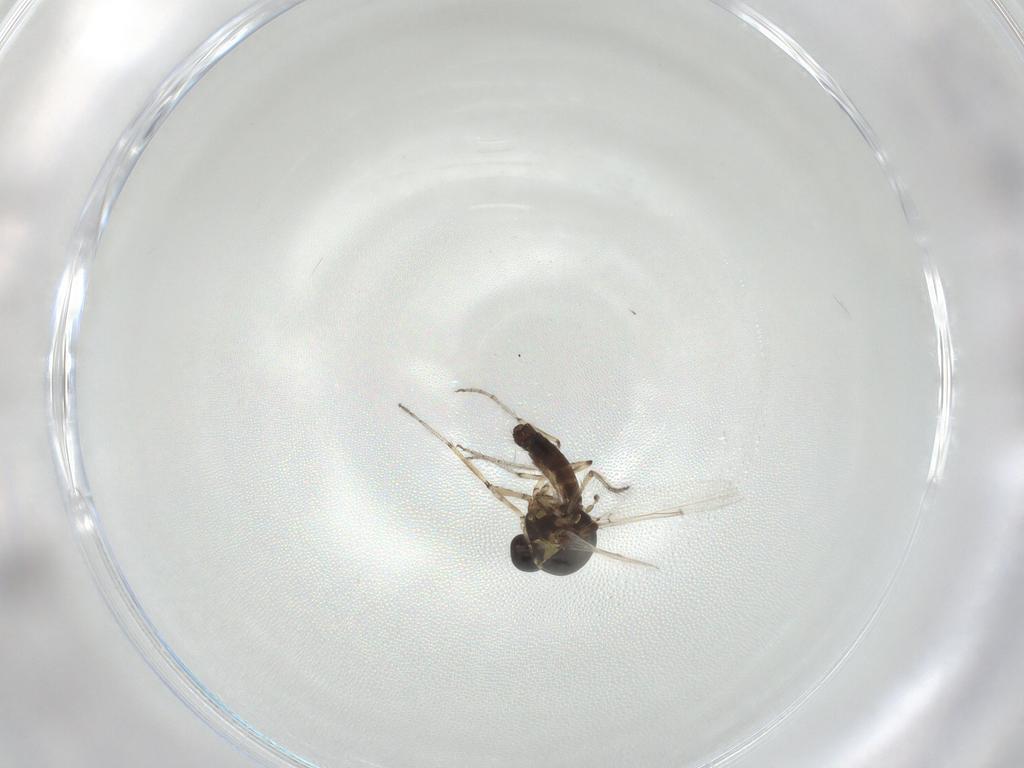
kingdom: Animalia
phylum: Arthropoda
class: Insecta
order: Diptera
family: Ceratopogonidae
